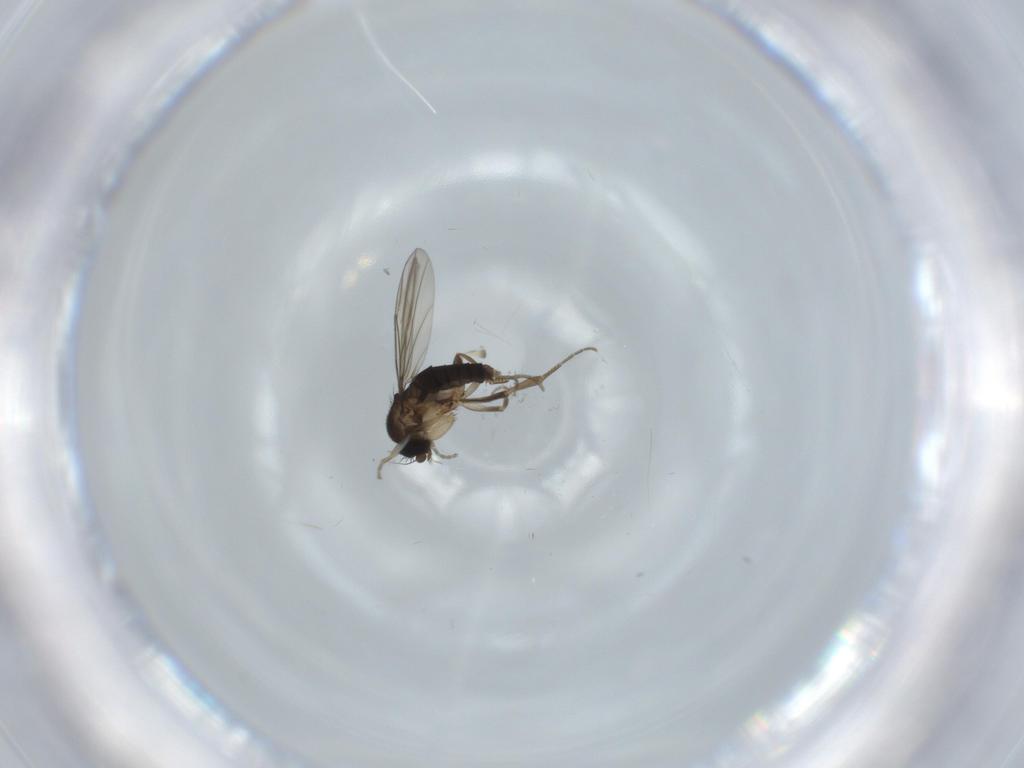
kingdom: Animalia
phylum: Arthropoda
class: Insecta
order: Diptera
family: Phoridae
